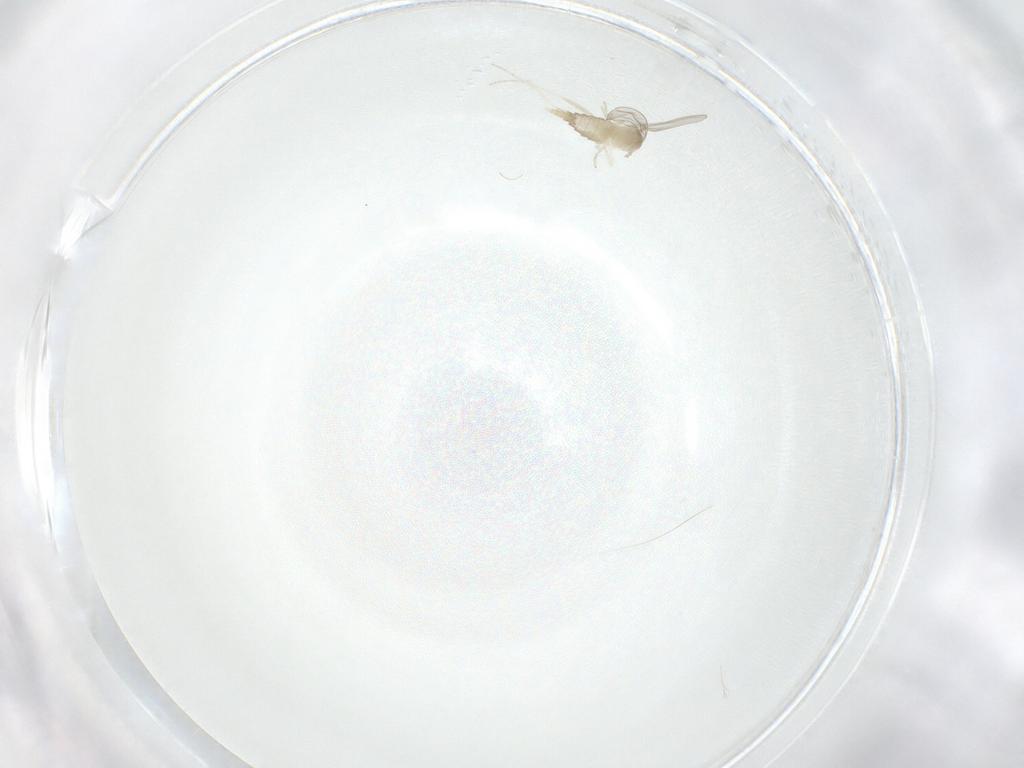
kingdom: Animalia
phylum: Arthropoda
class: Insecta
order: Diptera
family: Cecidomyiidae
